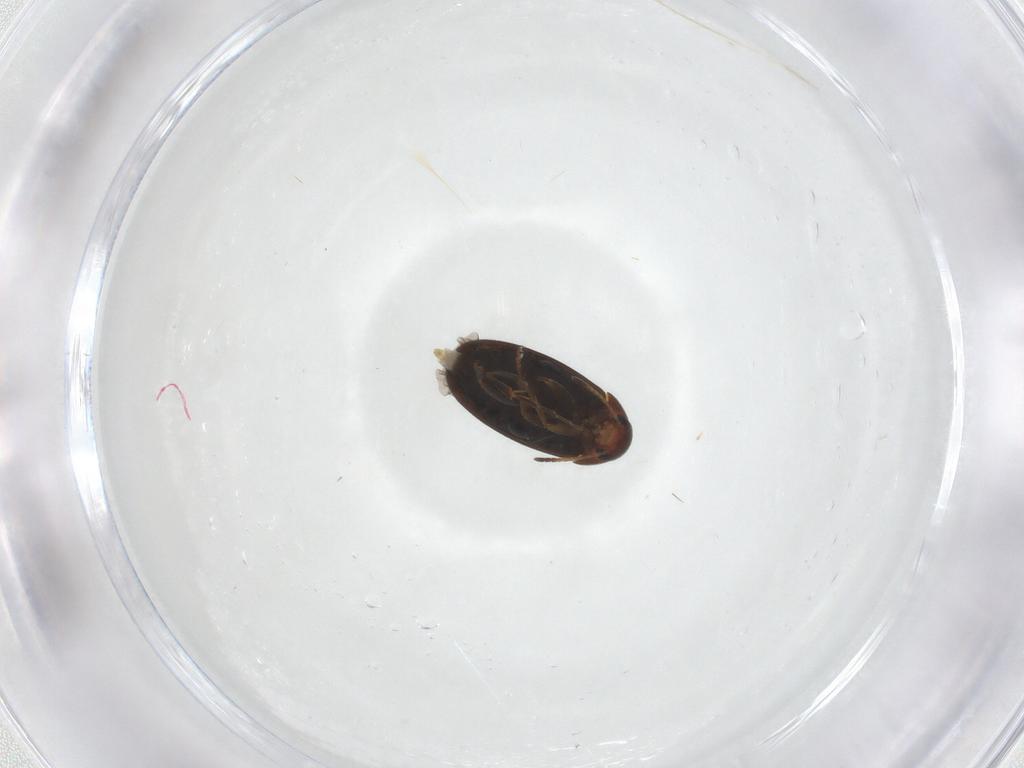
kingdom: Animalia
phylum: Arthropoda
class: Insecta
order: Coleoptera
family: Scraptiidae
